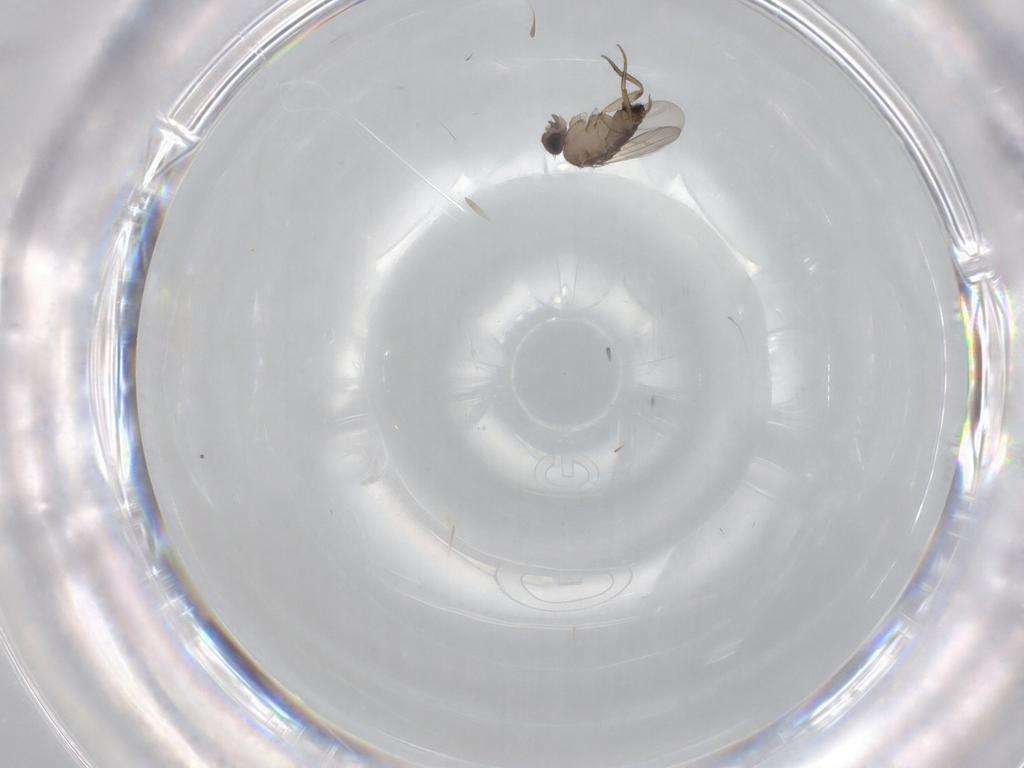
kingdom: Animalia
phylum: Arthropoda
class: Insecta
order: Diptera
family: Phoridae
